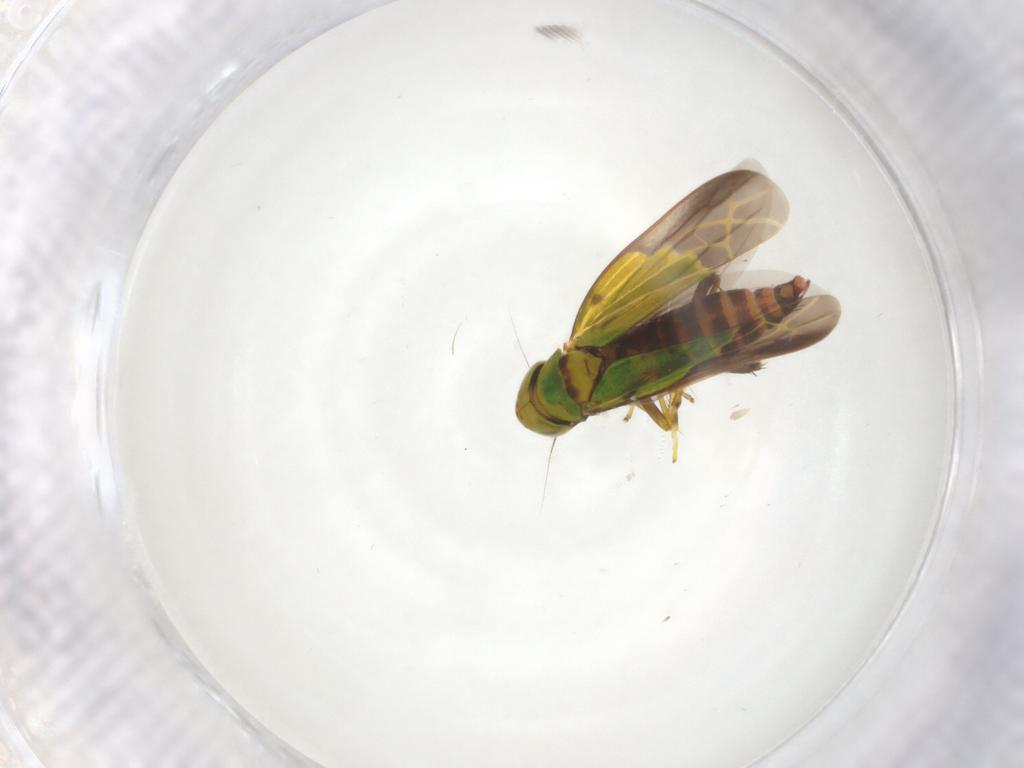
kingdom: Animalia
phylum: Arthropoda
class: Insecta
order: Hemiptera
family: Cicadellidae
